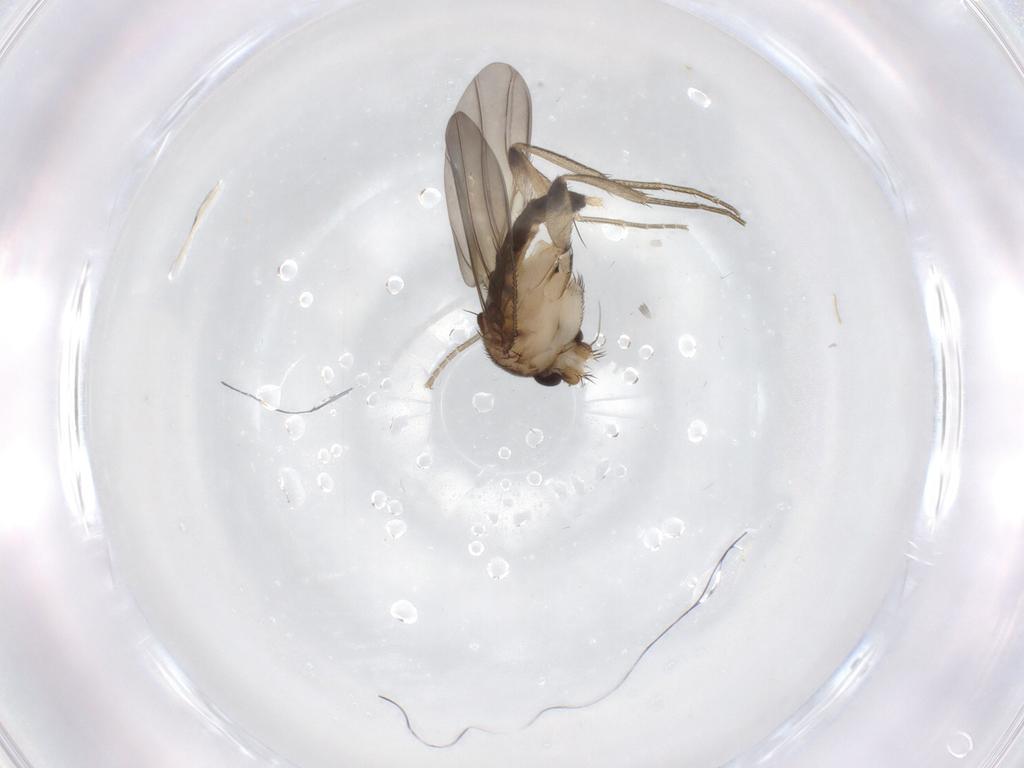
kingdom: Animalia
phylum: Arthropoda
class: Insecta
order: Diptera
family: Phoridae
